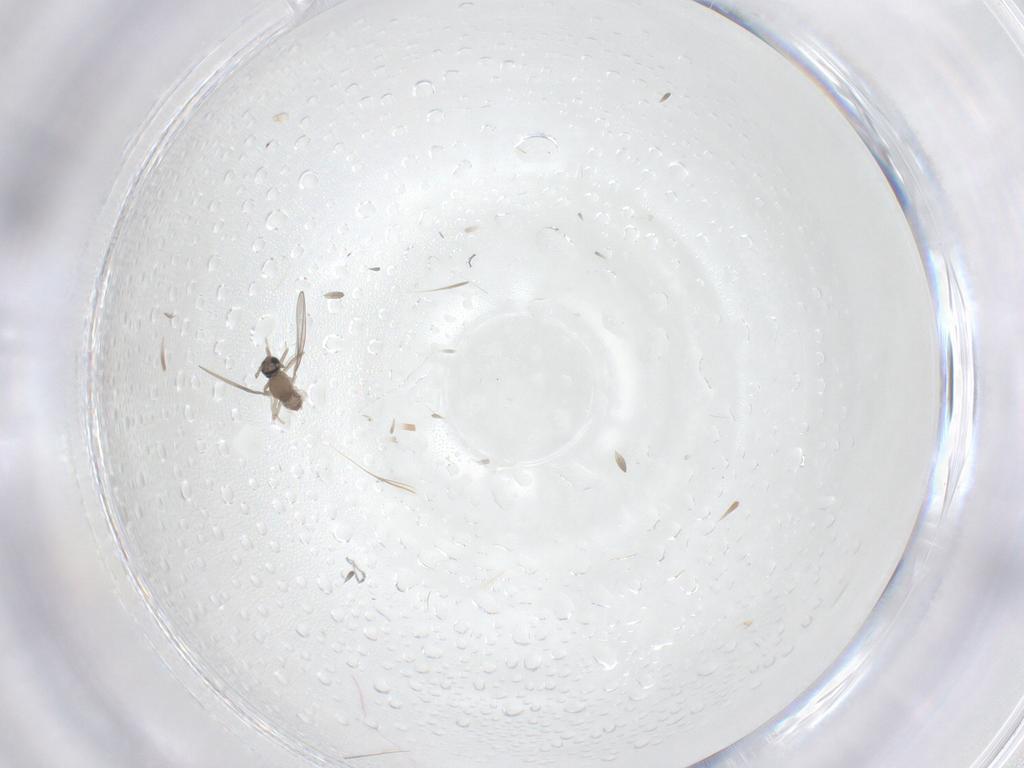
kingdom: Animalia
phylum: Arthropoda
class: Insecta
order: Diptera
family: Cecidomyiidae
